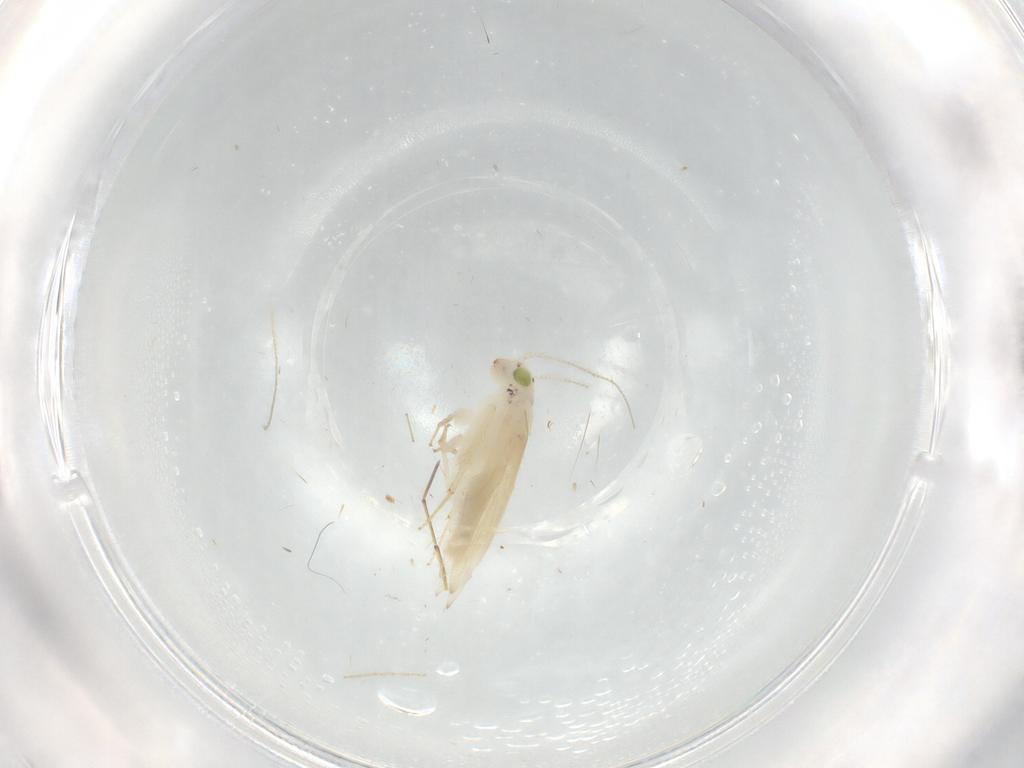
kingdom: Animalia
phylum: Arthropoda
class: Insecta
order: Psocodea
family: Lepidopsocidae
